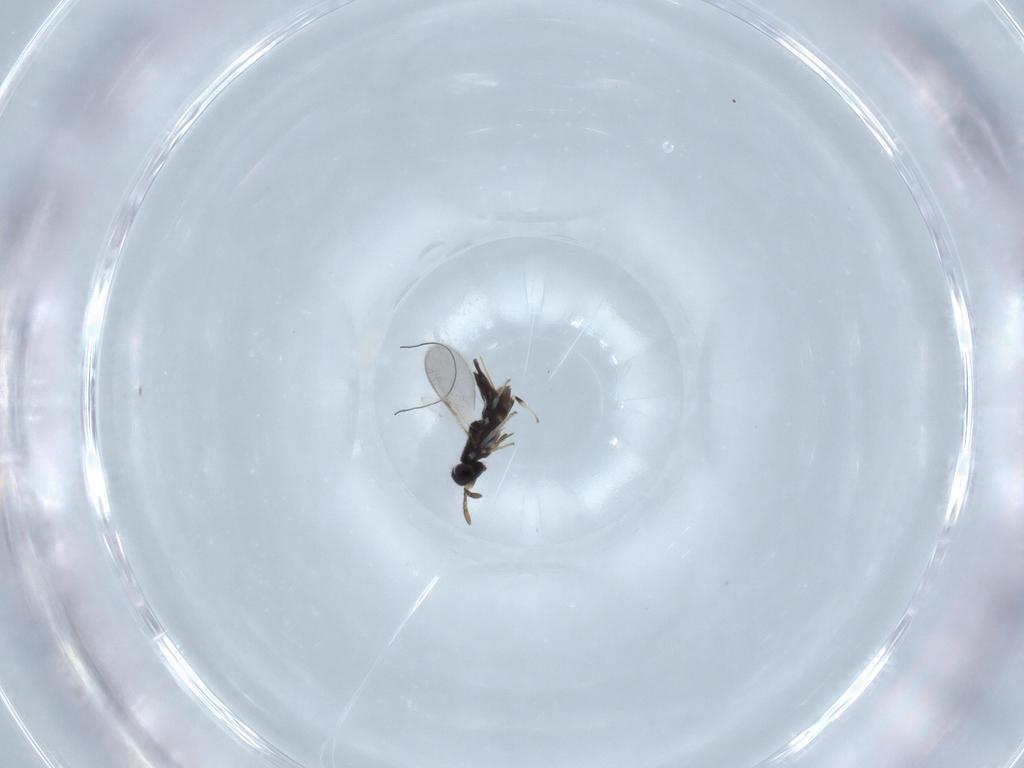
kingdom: Animalia
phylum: Arthropoda
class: Insecta
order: Hymenoptera
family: Encyrtidae
